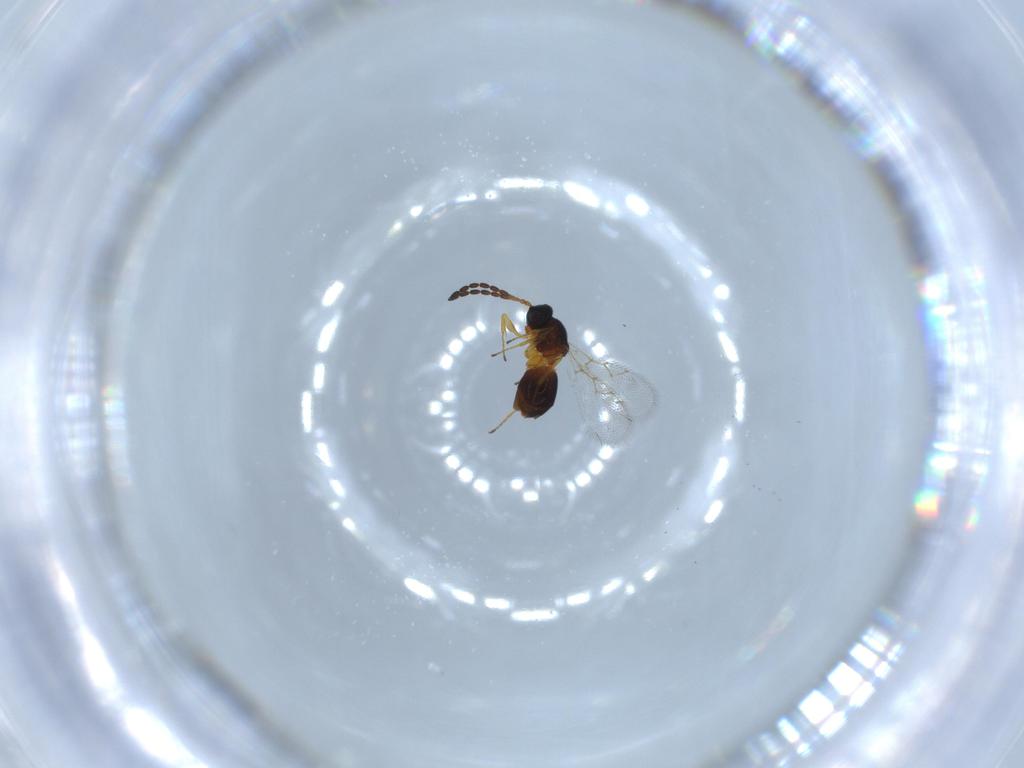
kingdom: Animalia
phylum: Arthropoda
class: Insecta
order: Hymenoptera
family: Figitidae
